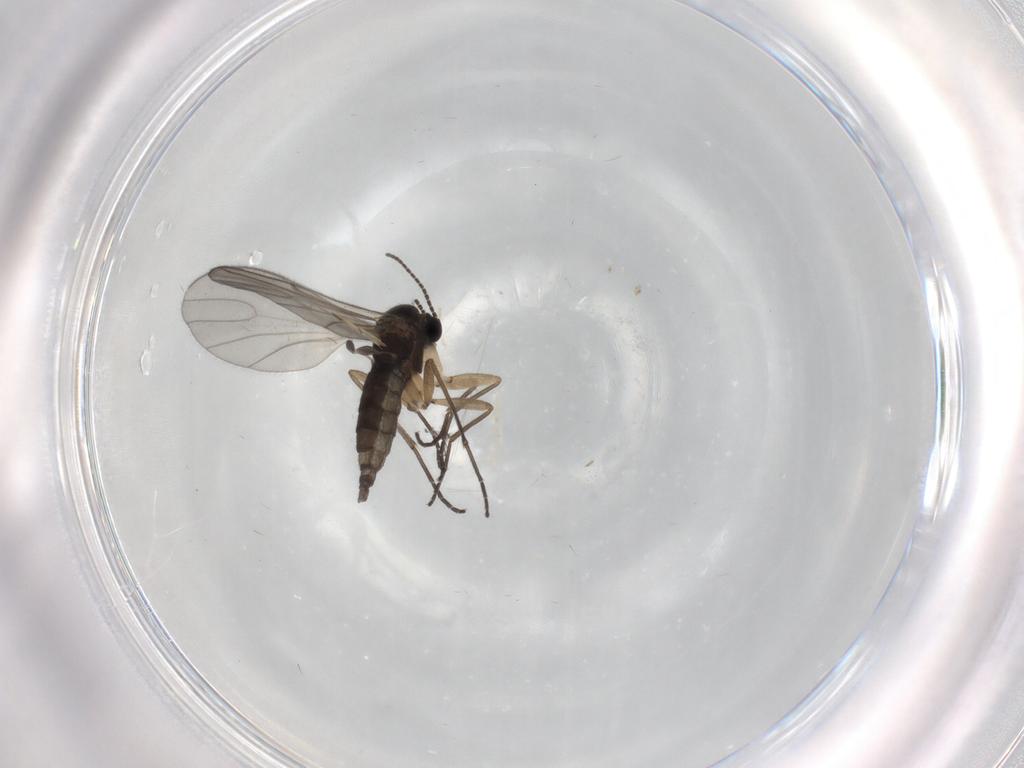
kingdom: Animalia
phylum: Arthropoda
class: Insecta
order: Diptera
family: Sciaridae
